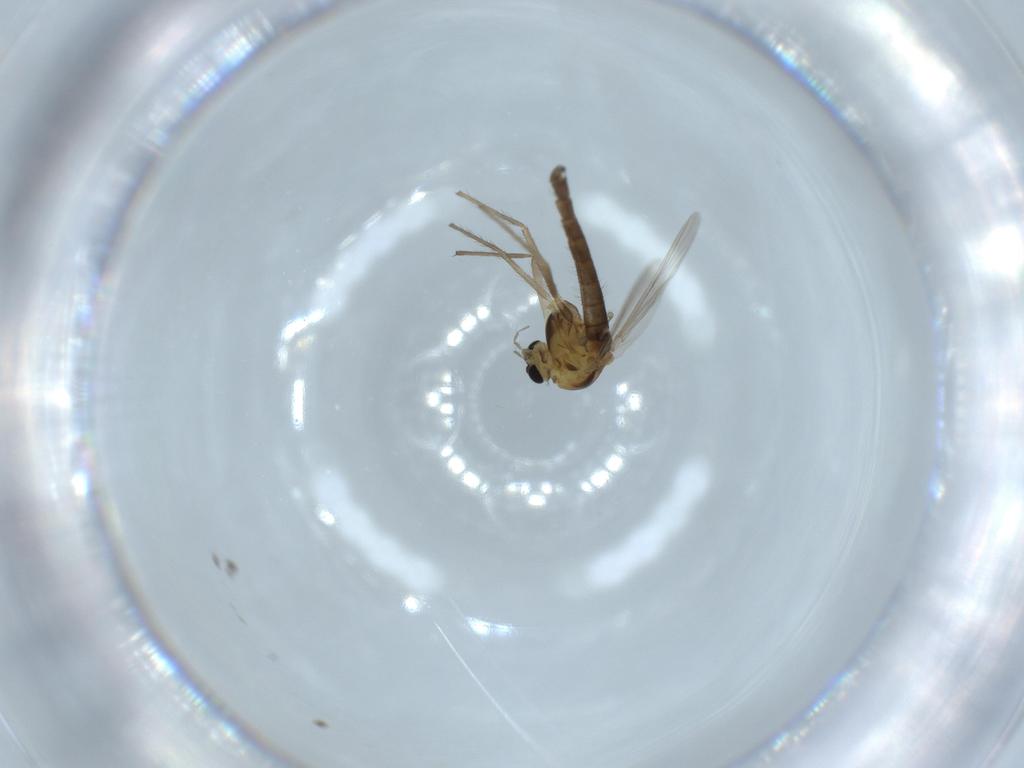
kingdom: Animalia
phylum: Arthropoda
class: Insecta
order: Diptera
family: Chironomidae
